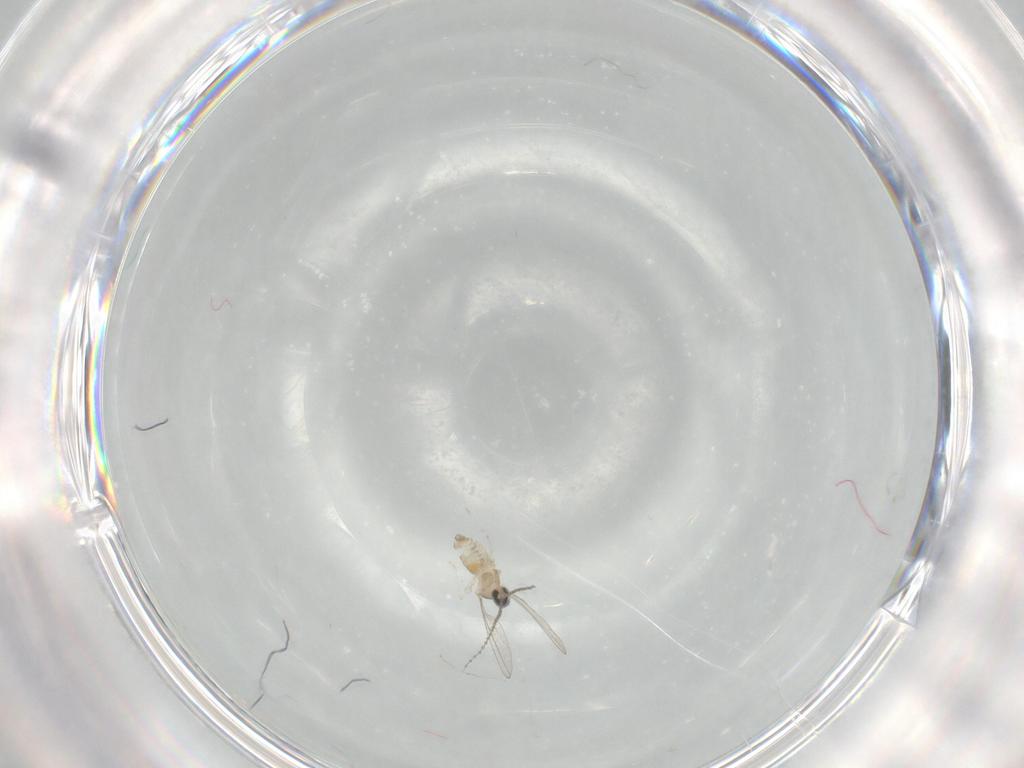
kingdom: Animalia
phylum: Arthropoda
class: Insecta
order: Diptera
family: Cecidomyiidae
